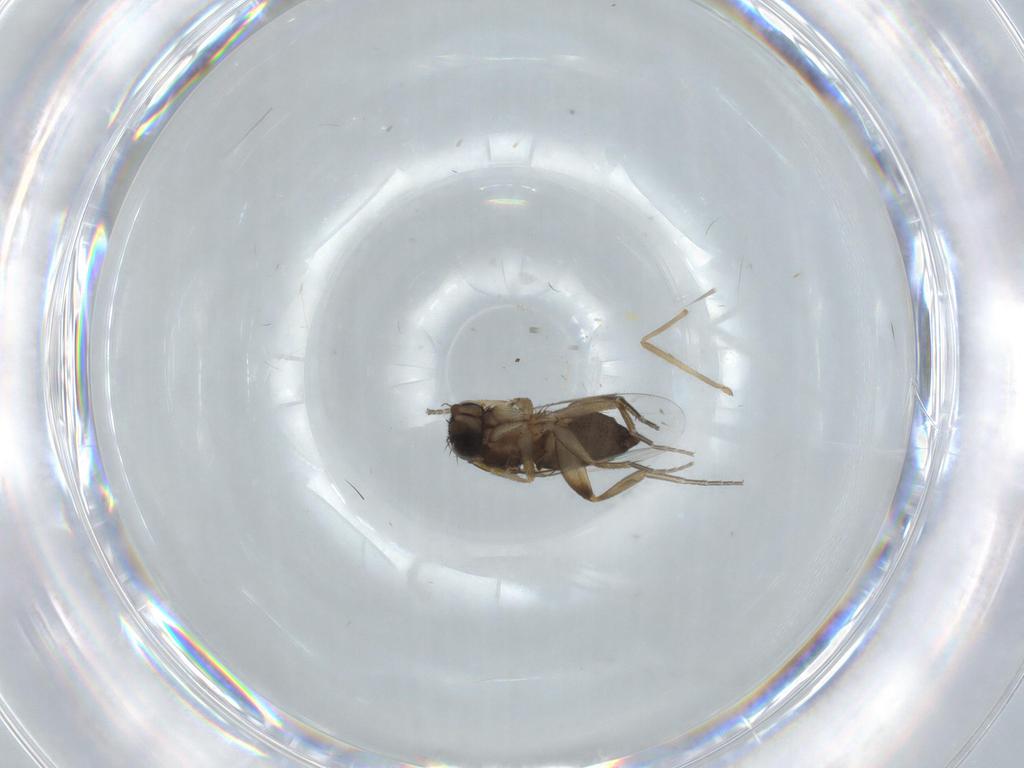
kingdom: Animalia
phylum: Arthropoda
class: Insecta
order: Diptera
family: Phoridae
